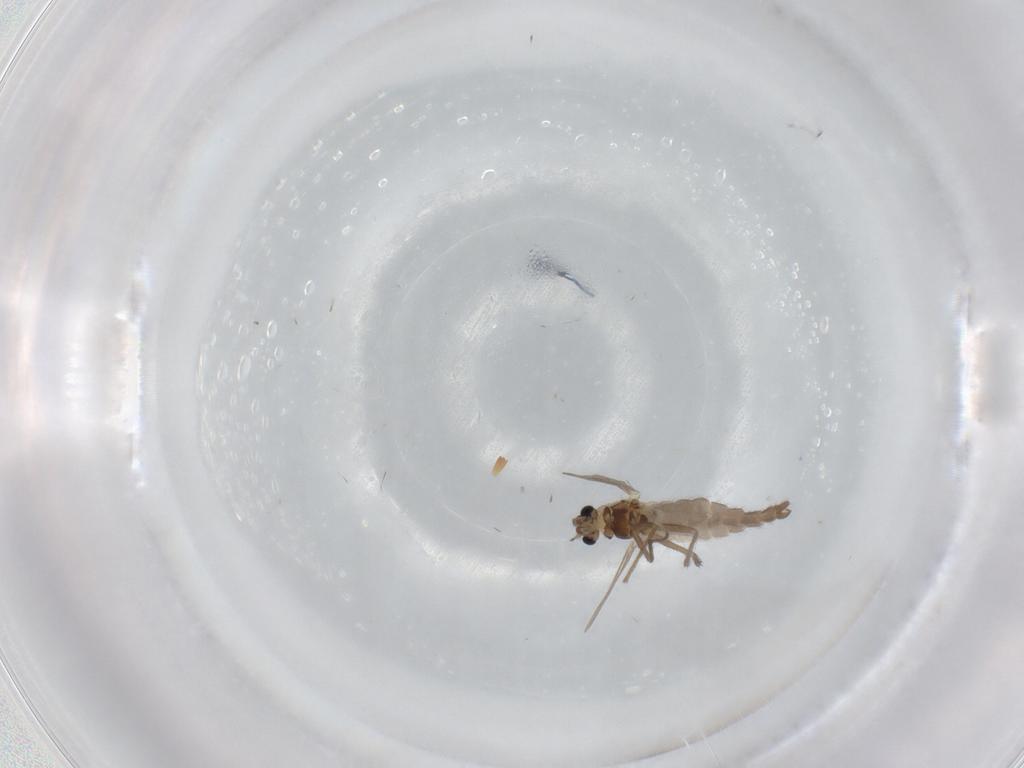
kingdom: Animalia
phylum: Arthropoda
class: Insecta
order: Diptera
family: Chironomidae
